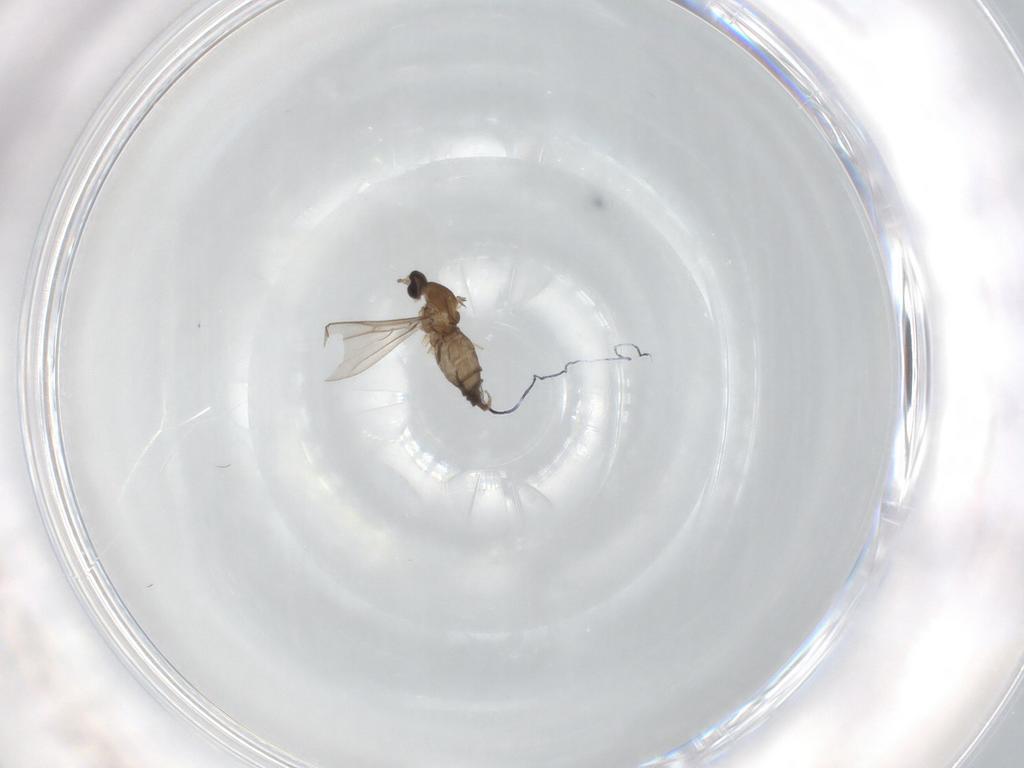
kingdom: Animalia
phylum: Arthropoda
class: Insecta
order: Diptera
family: Cecidomyiidae
